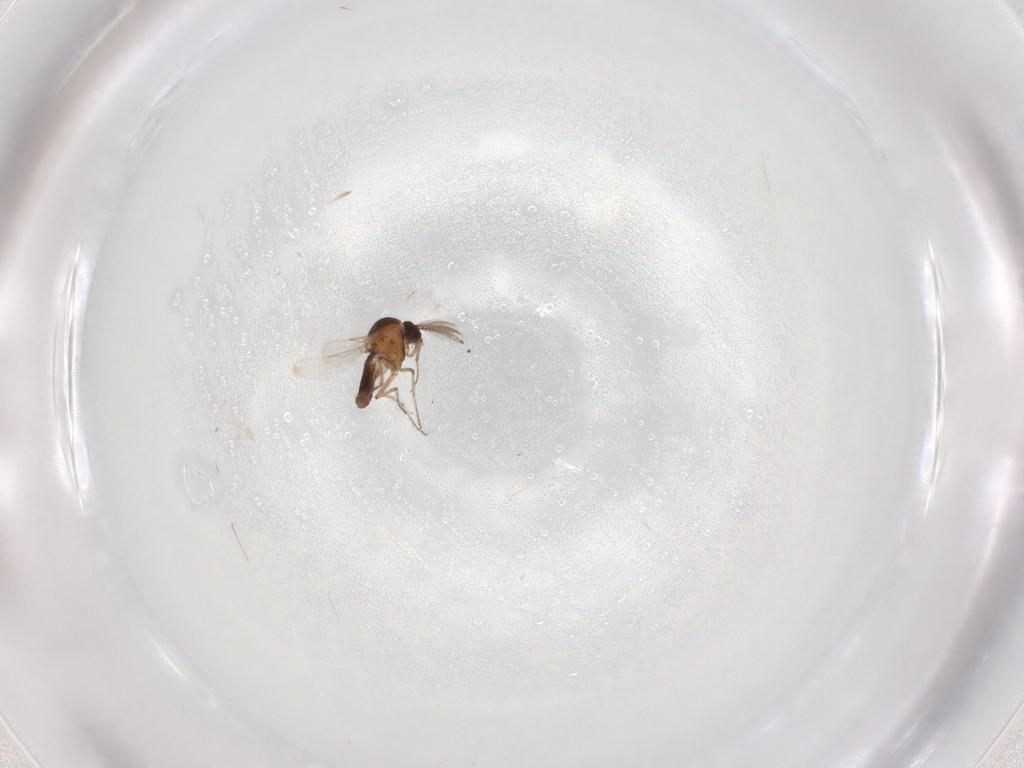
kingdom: Animalia
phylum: Arthropoda
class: Insecta
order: Diptera
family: Ceratopogonidae
